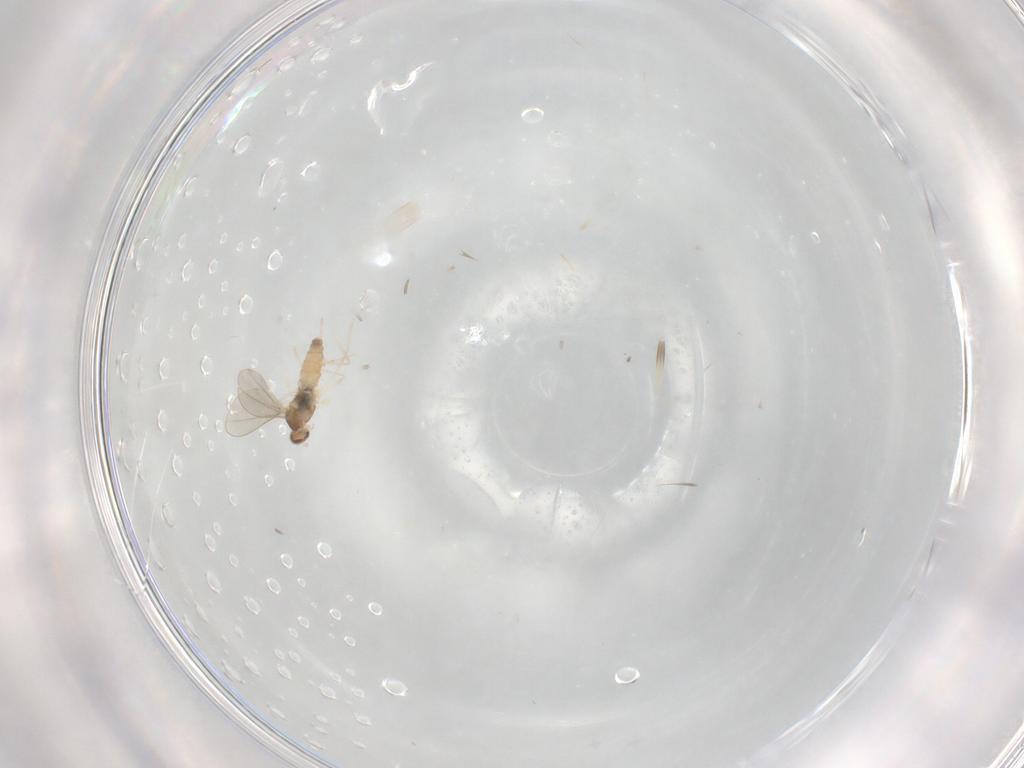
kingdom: Animalia
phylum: Arthropoda
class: Insecta
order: Diptera
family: Cecidomyiidae
